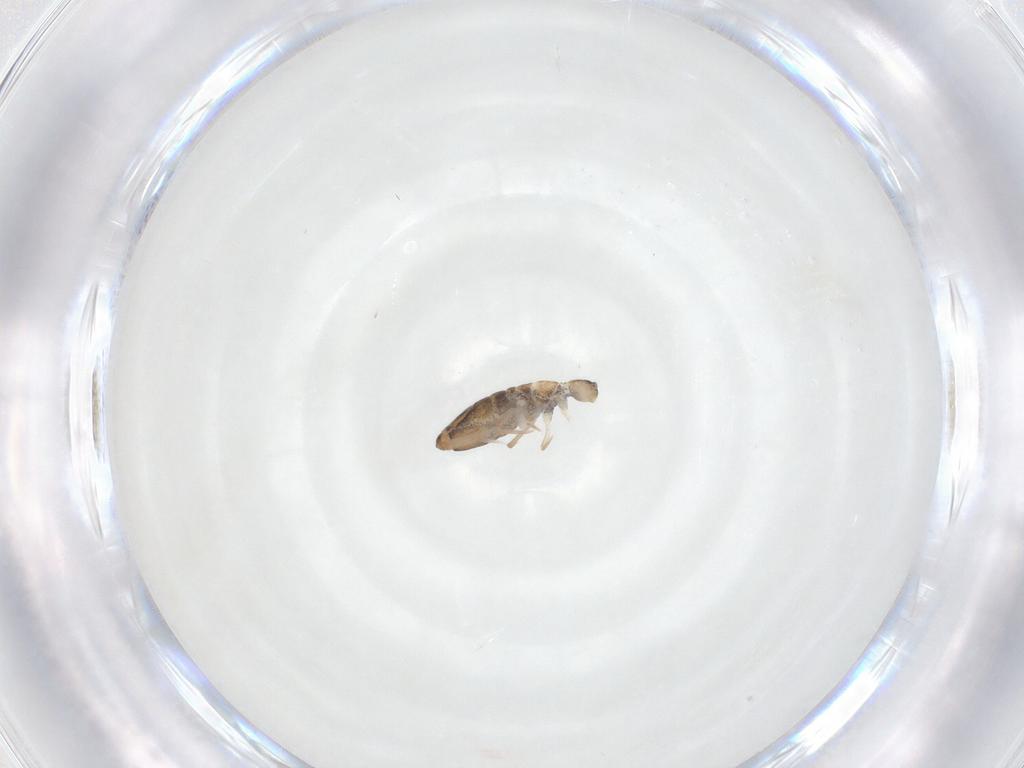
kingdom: Animalia
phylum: Arthropoda
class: Collembola
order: Entomobryomorpha
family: Entomobryidae
